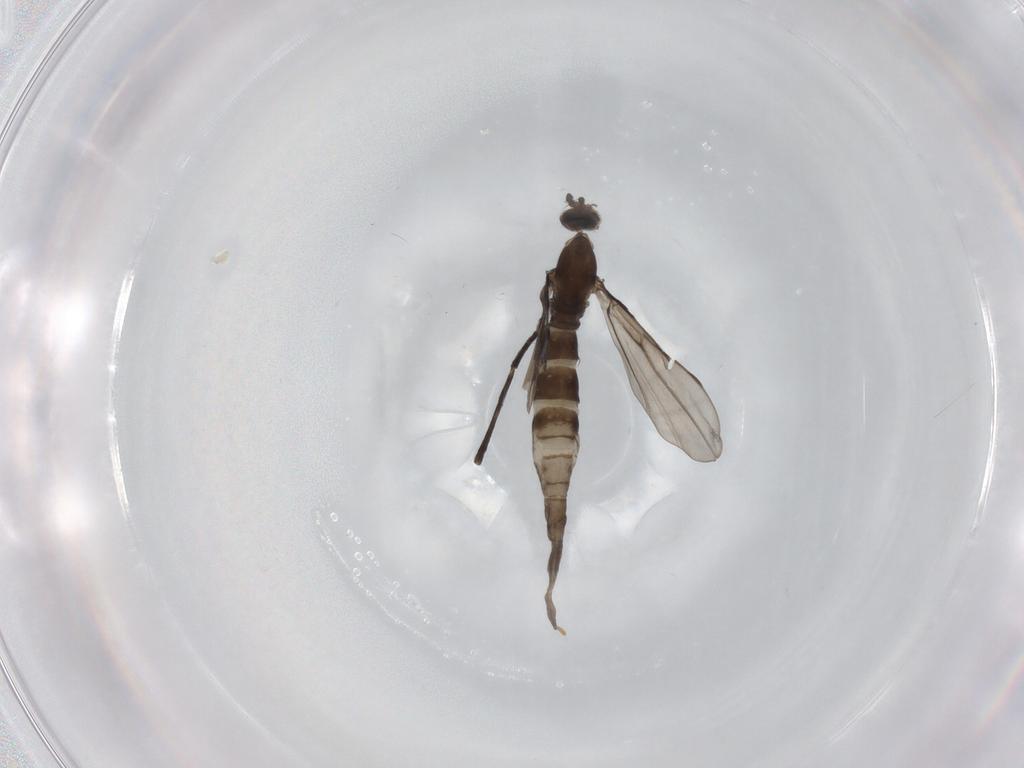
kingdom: Animalia
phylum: Arthropoda
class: Insecta
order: Diptera
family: Cecidomyiidae
